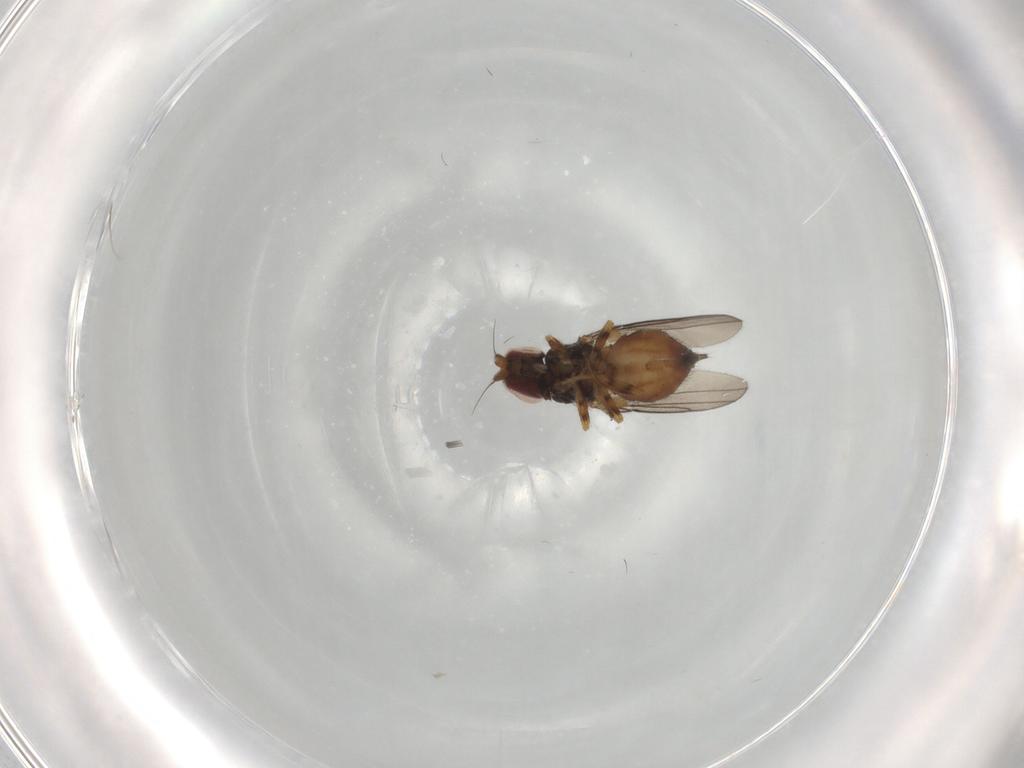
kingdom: Animalia
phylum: Arthropoda
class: Insecta
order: Diptera
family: Chloropidae
